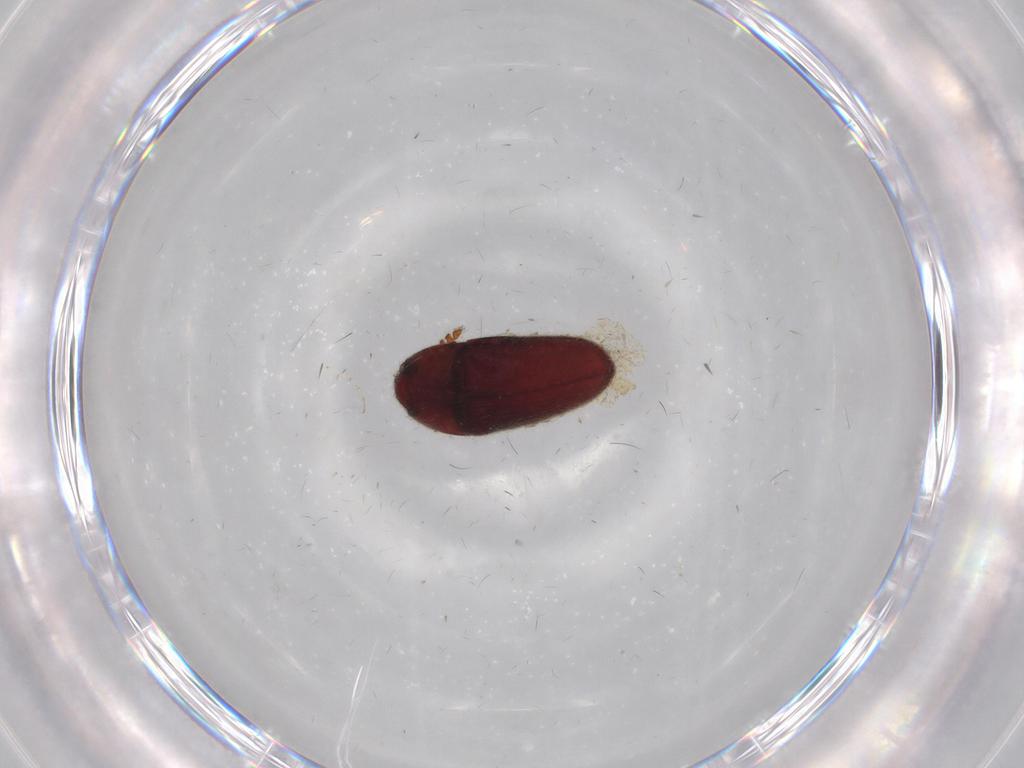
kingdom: Animalia
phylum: Arthropoda
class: Insecta
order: Coleoptera
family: Throscidae
